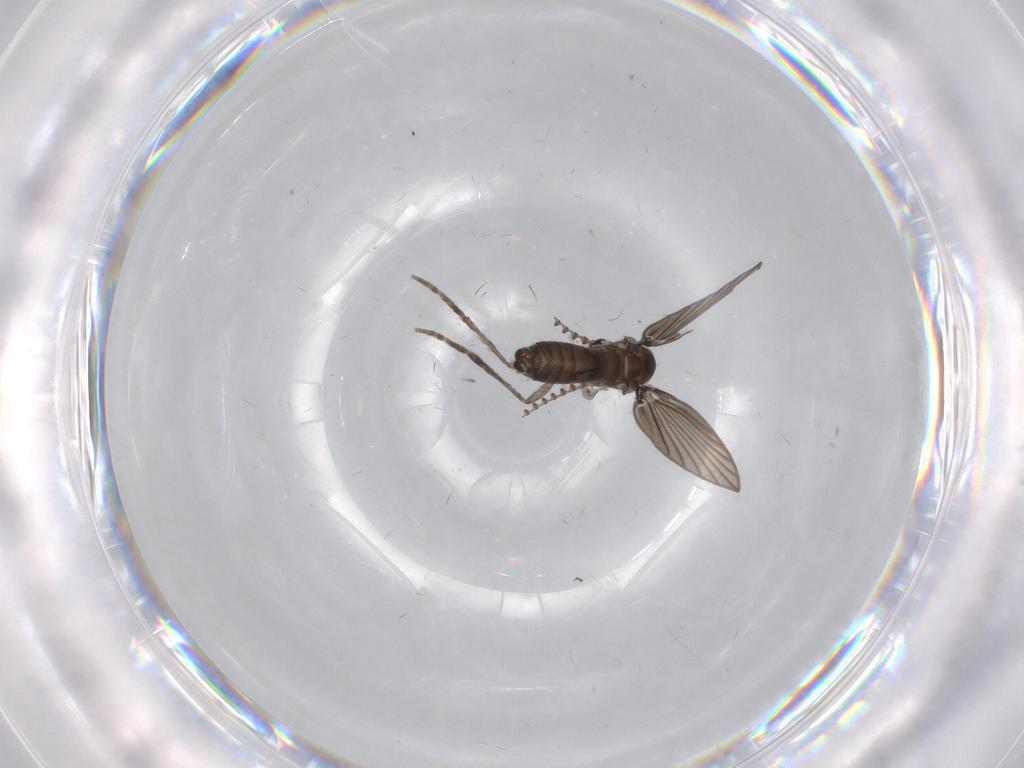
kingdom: Animalia
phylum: Arthropoda
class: Insecta
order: Diptera
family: Psychodidae
